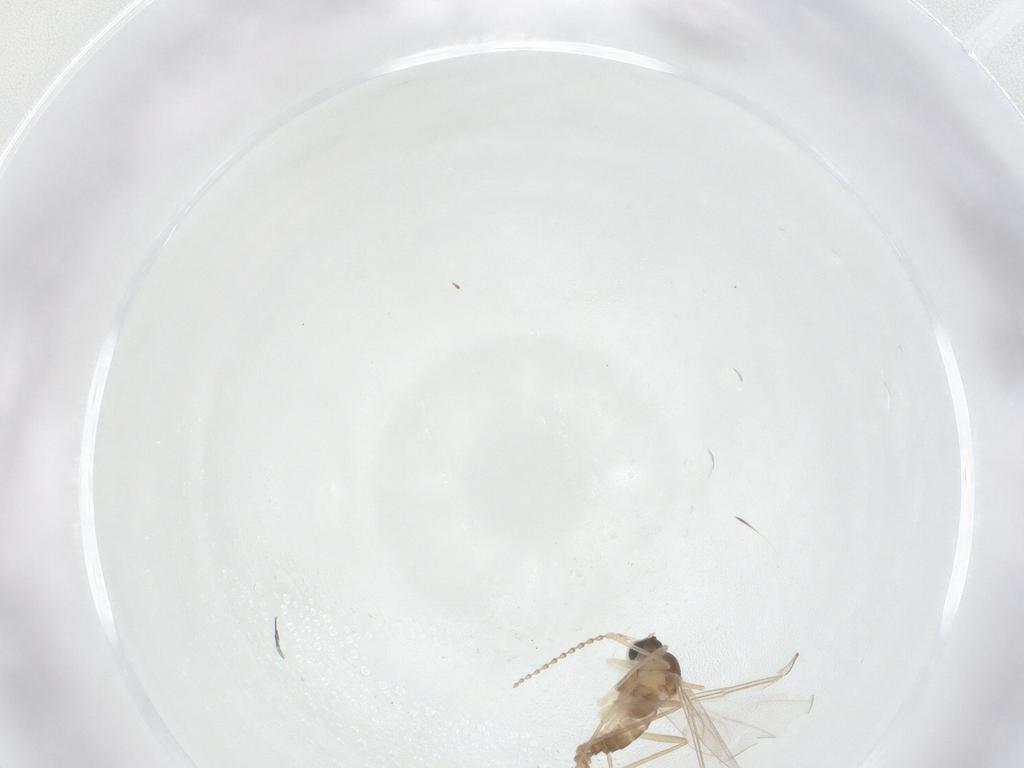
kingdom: Animalia
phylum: Arthropoda
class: Insecta
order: Diptera
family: Cecidomyiidae
